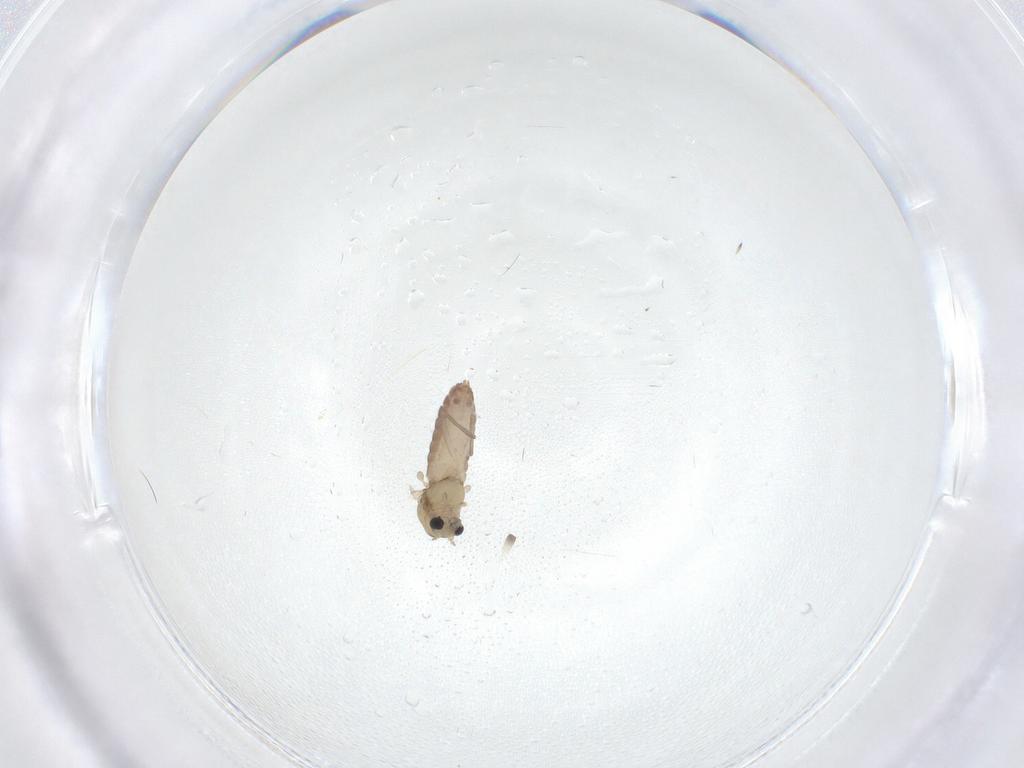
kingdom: Animalia
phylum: Arthropoda
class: Insecta
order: Diptera
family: Chironomidae
